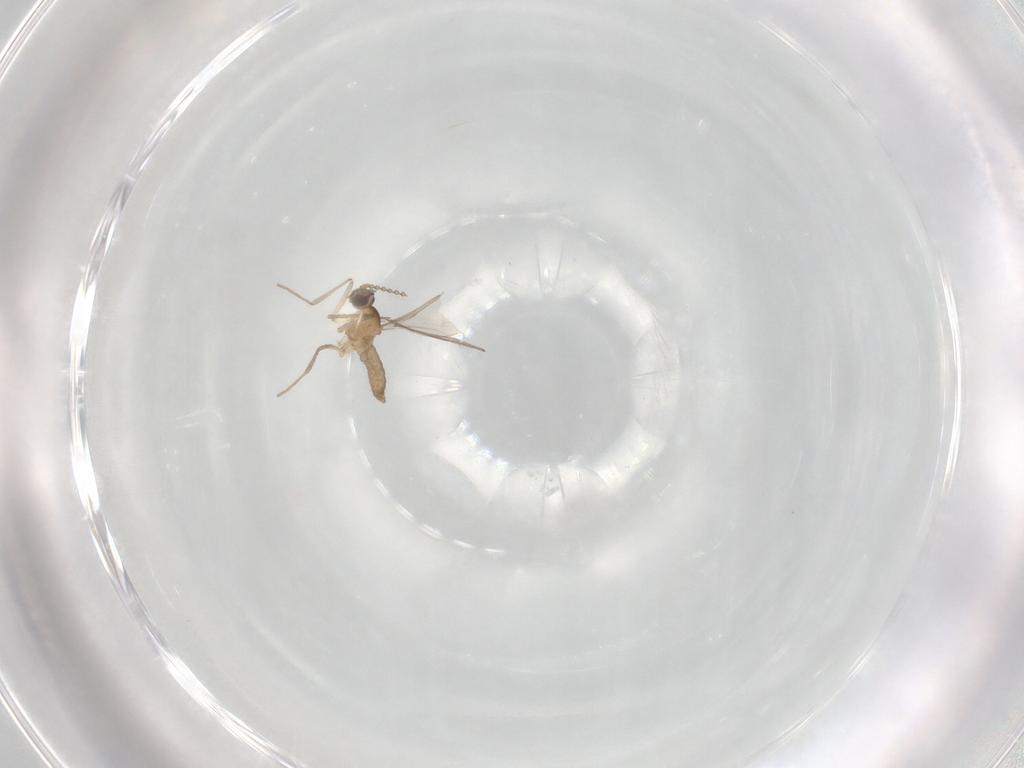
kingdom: Animalia
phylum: Arthropoda
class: Insecta
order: Diptera
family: Cecidomyiidae
